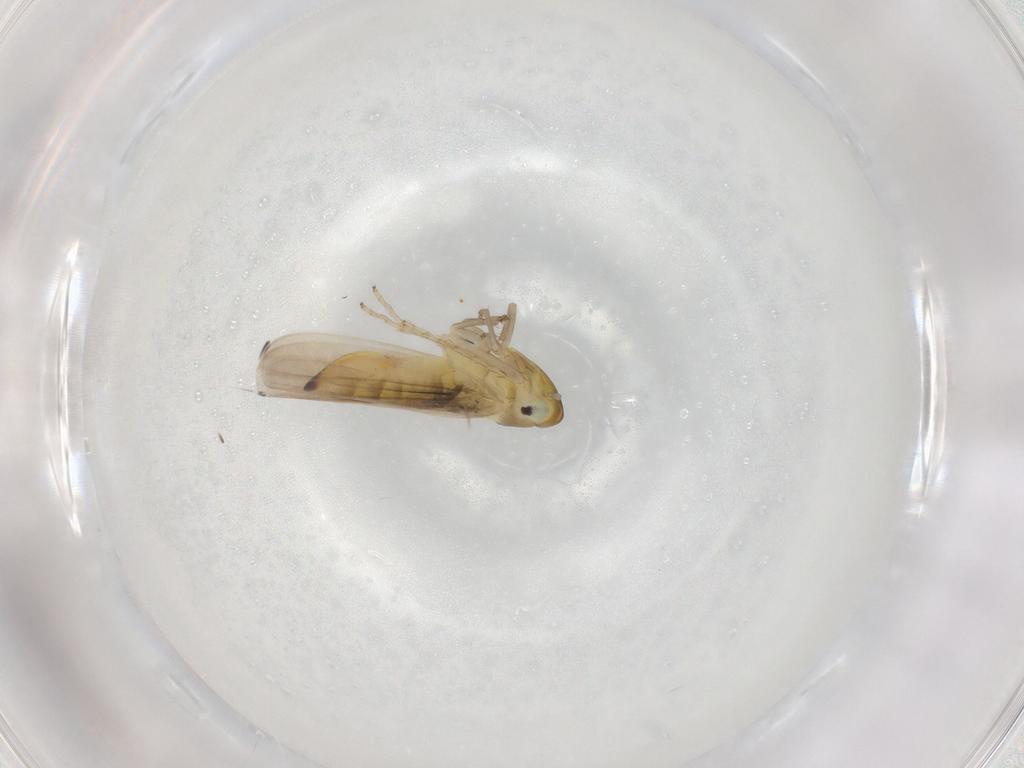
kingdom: Animalia
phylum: Arthropoda
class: Insecta
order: Hemiptera
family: Cicadellidae
